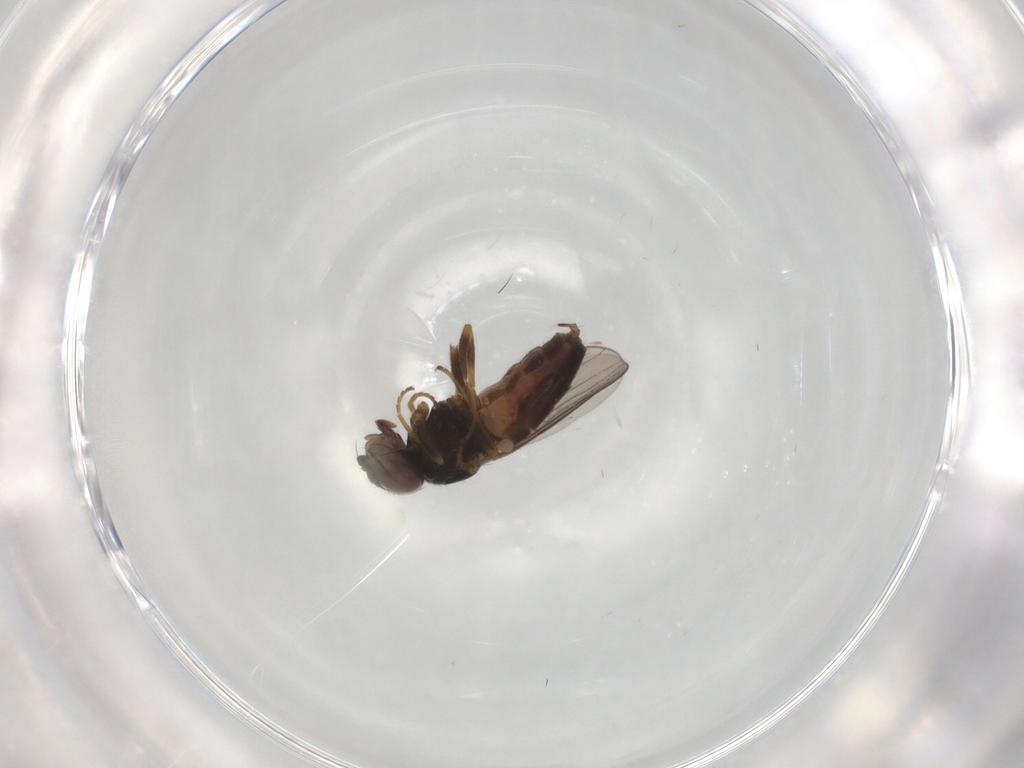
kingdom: Animalia
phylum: Arthropoda
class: Insecta
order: Diptera
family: Chloropidae
